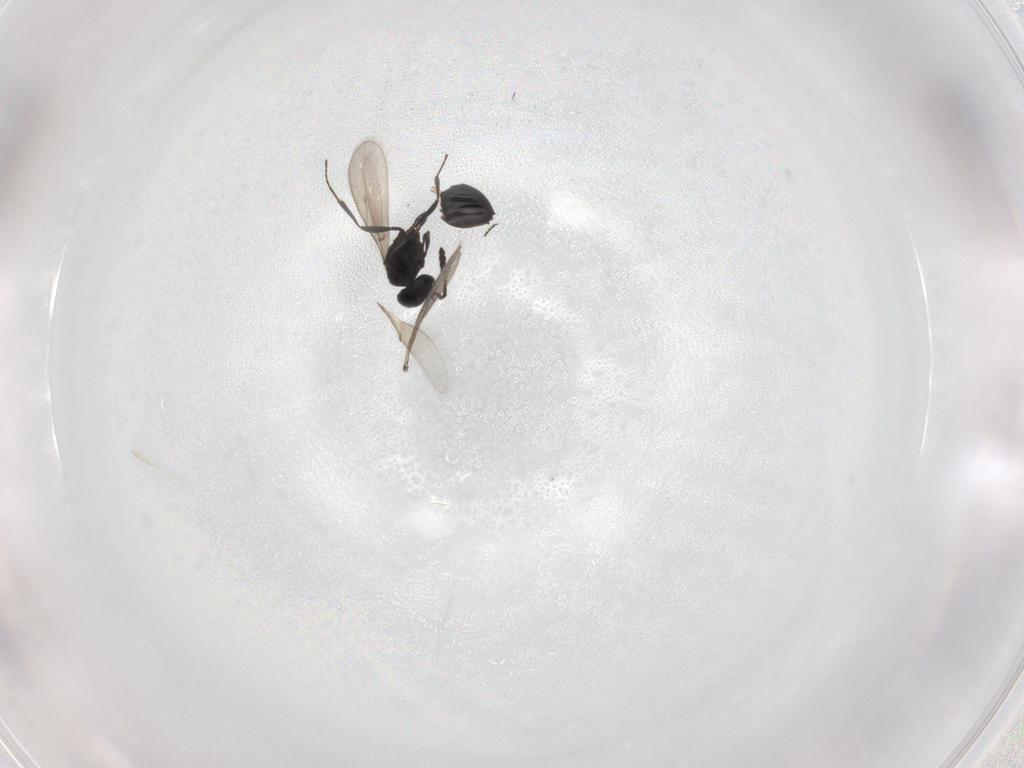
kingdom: Animalia
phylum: Arthropoda
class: Insecta
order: Hymenoptera
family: Scelionidae
